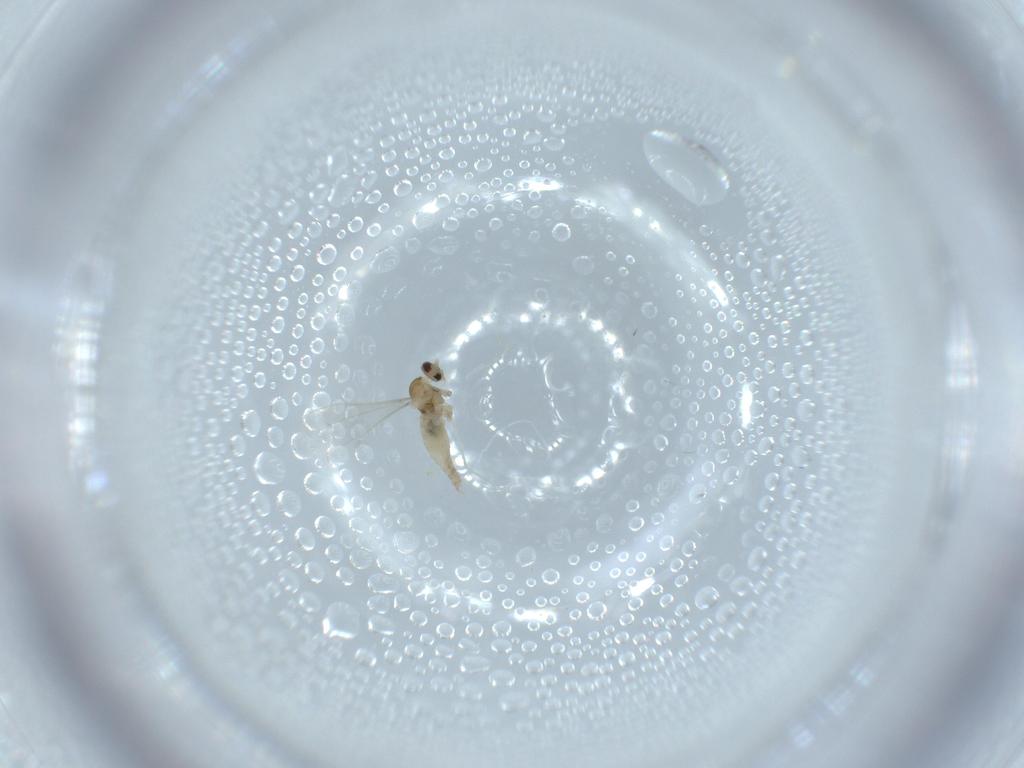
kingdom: Animalia
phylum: Arthropoda
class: Insecta
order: Diptera
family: Cecidomyiidae
